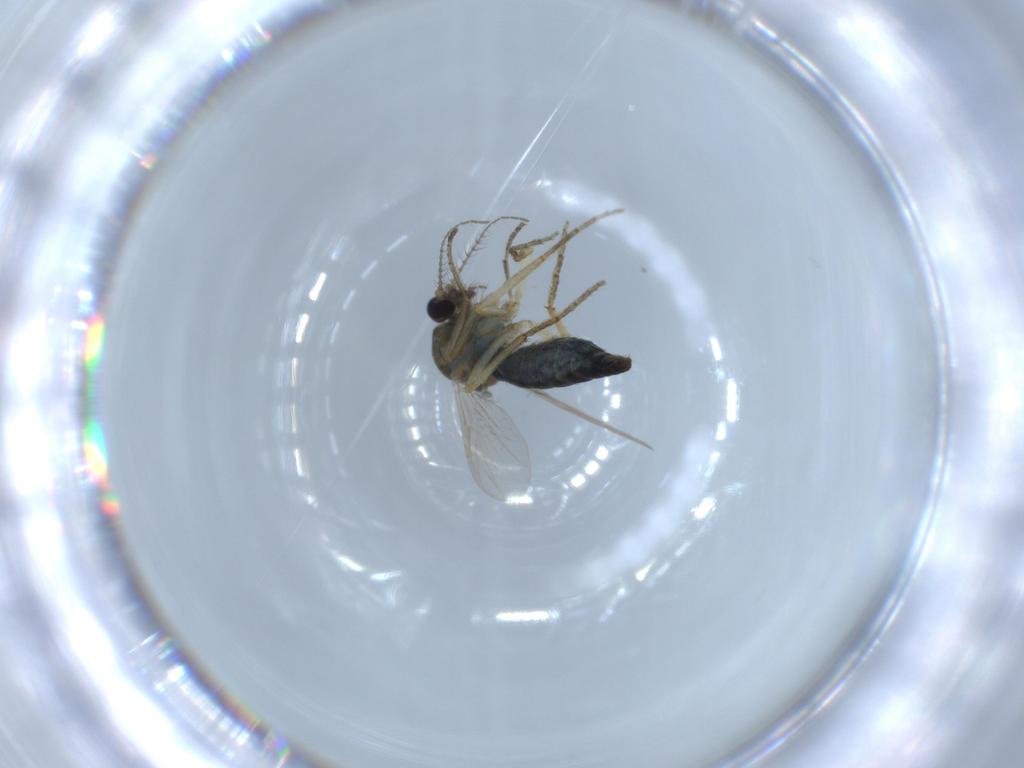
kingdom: Animalia
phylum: Arthropoda
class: Insecta
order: Diptera
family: Ceratopogonidae
